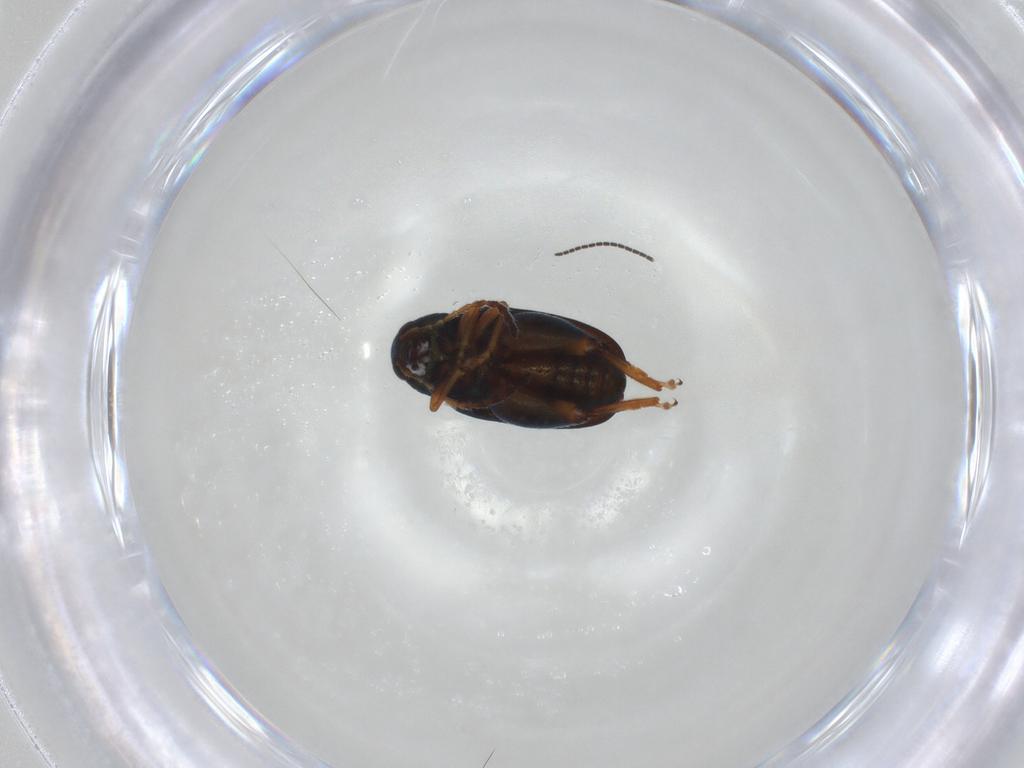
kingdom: Animalia
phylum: Arthropoda
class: Insecta
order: Coleoptera
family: Chrysomelidae
